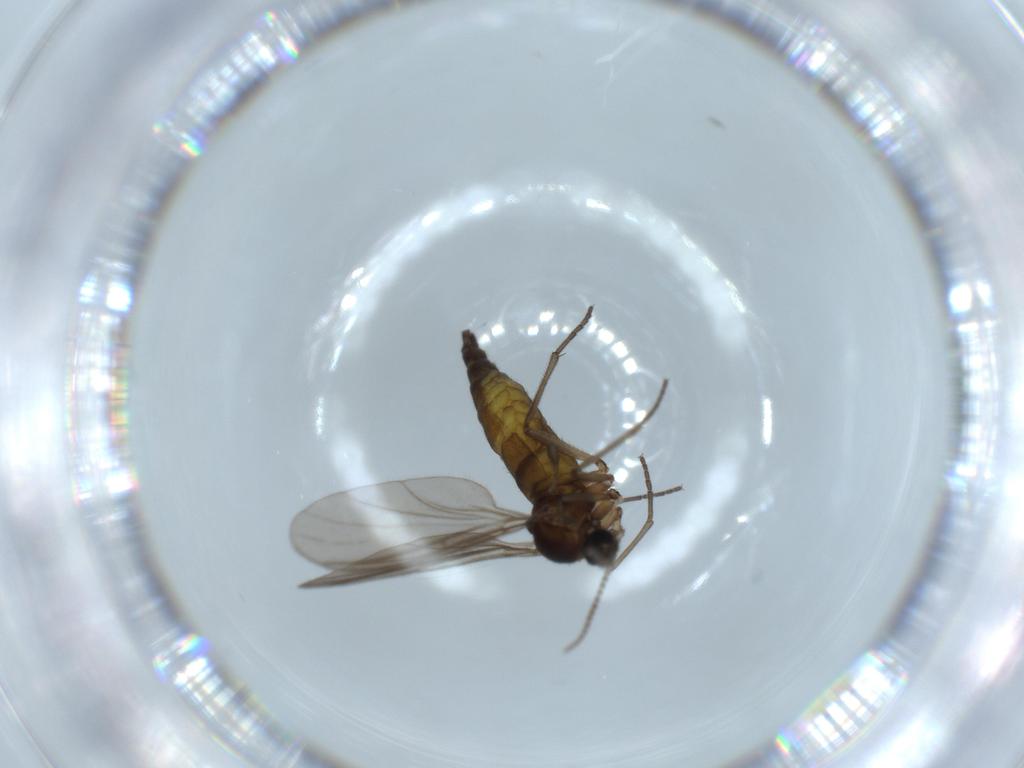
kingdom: Animalia
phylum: Arthropoda
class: Insecta
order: Diptera
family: Sciaridae
